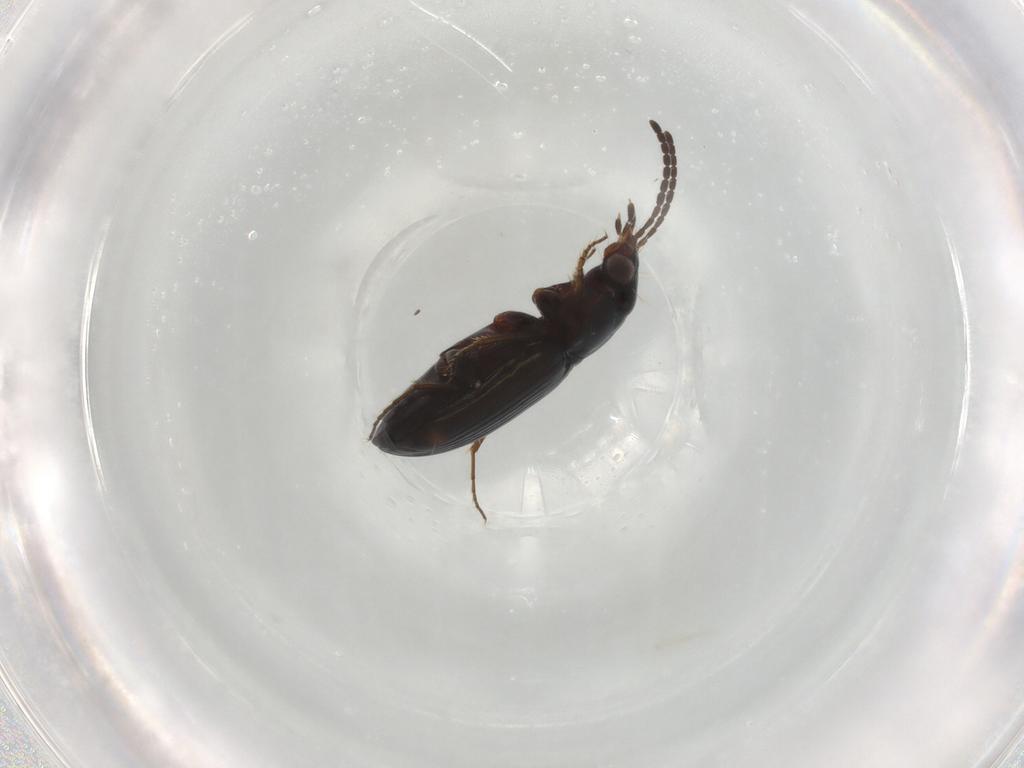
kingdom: Animalia
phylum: Arthropoda
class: Insecta
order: Coleoptera
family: Carabidae
